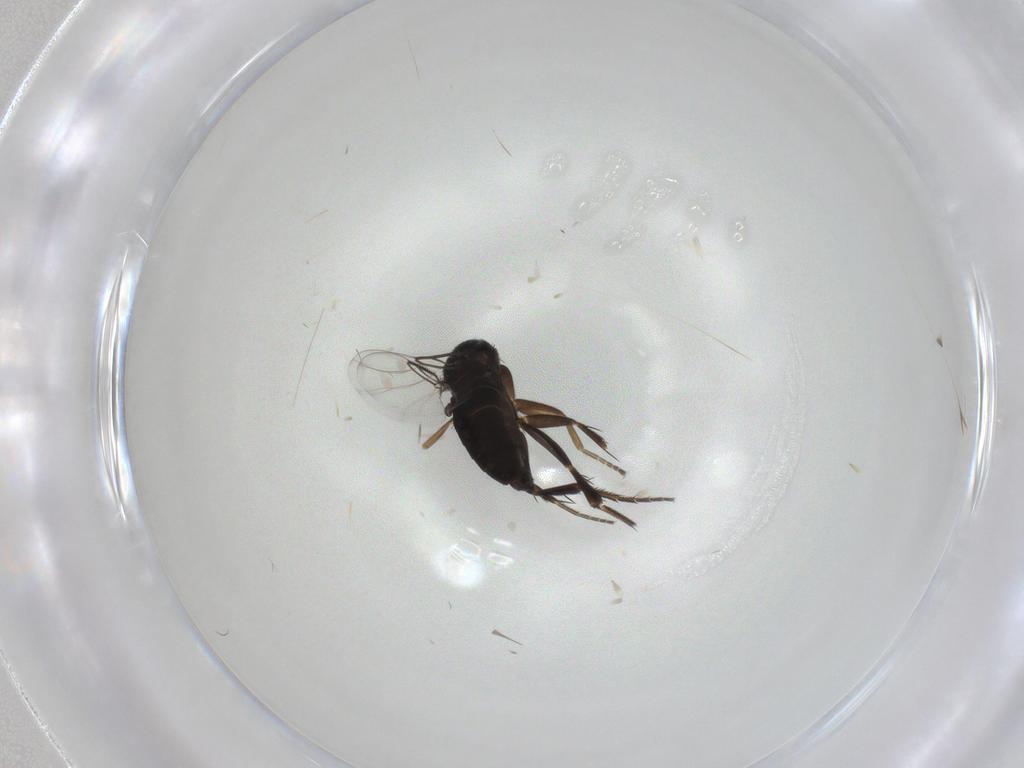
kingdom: Animalia
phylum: Arthropoda
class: Insecta
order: Diptera
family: Phoridae
